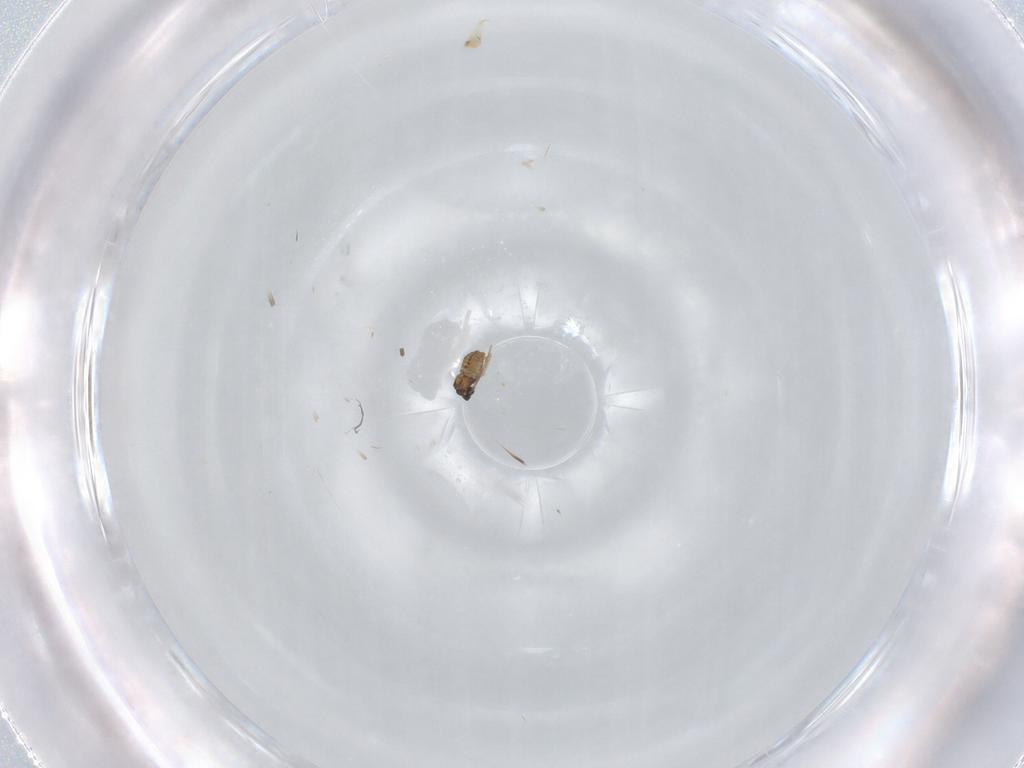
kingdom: Animalia
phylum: Arthropoda
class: Insecta
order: Diptera
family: Cecidomyiidae
